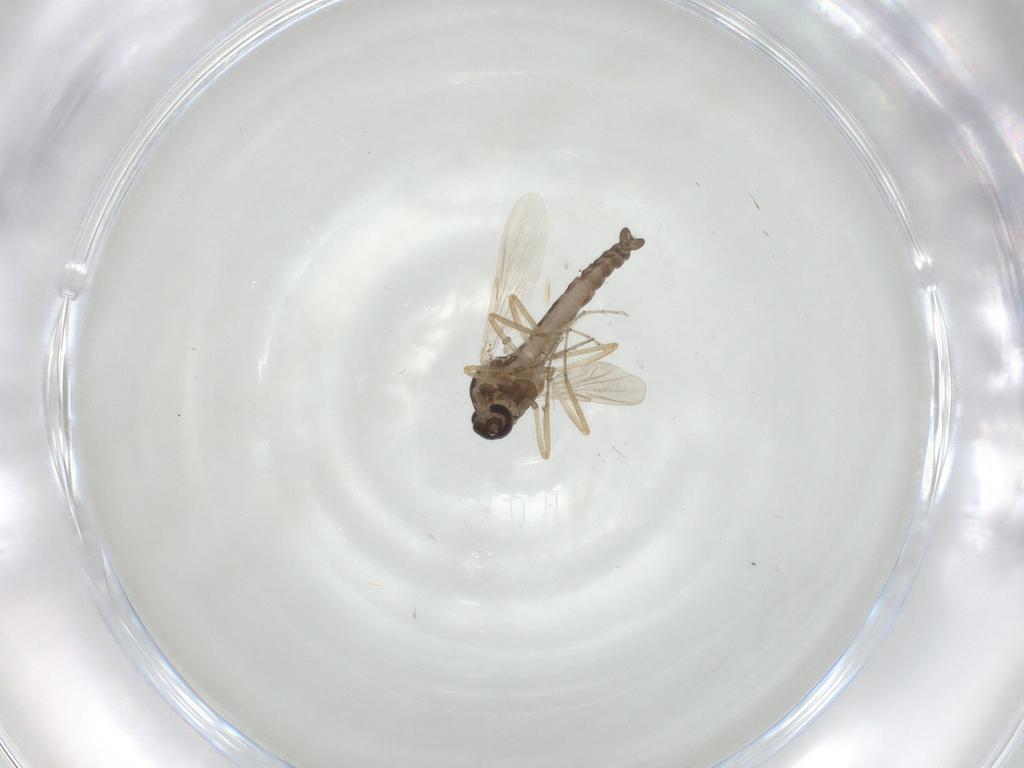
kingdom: Animalia
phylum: Arthropoda
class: Insecta
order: Diptera
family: Ceratopogonidae
